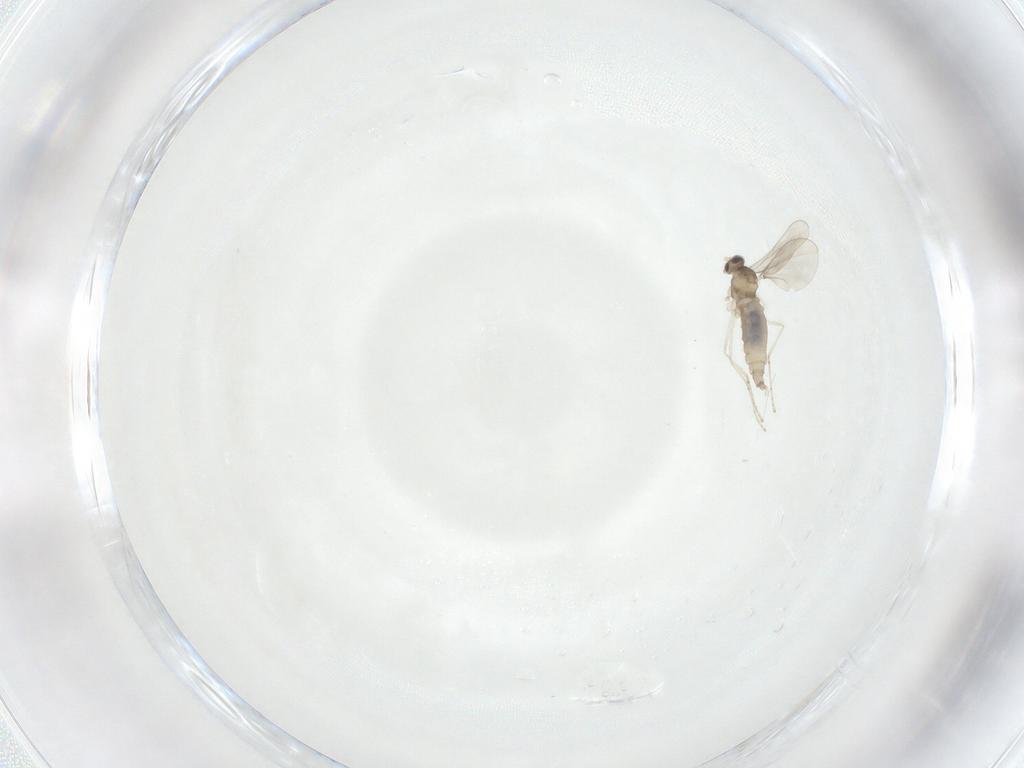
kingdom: Animalia
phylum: Arthropoda
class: Insecta
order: Diptera
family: Cecidomyiidae
